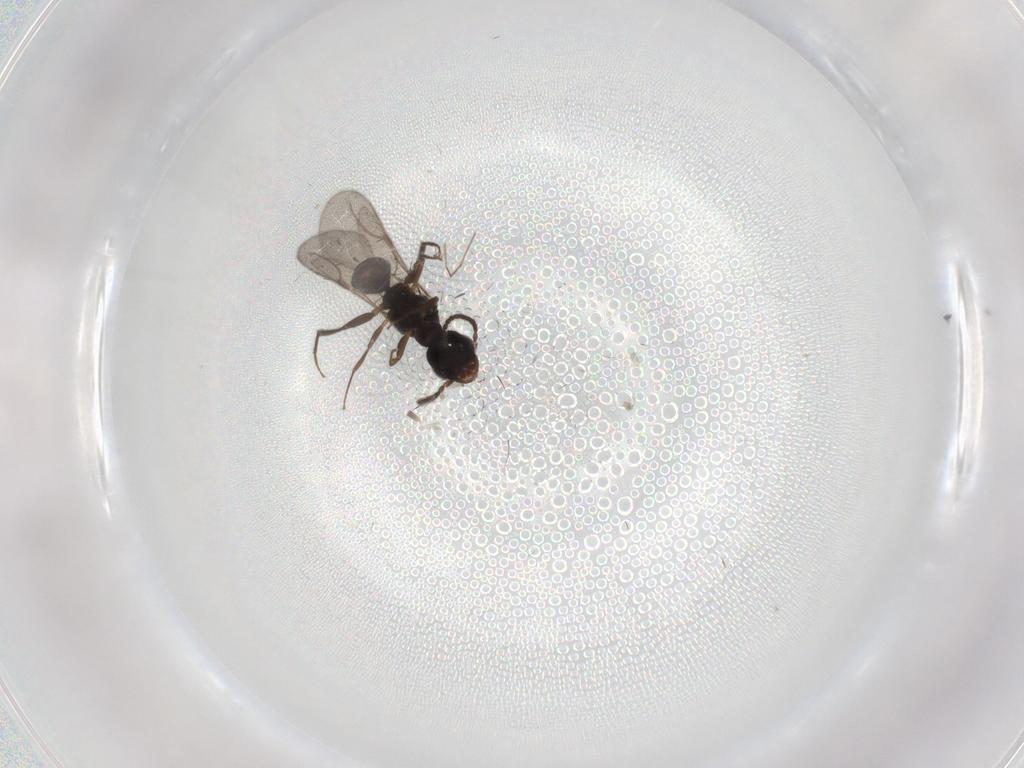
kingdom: Animalia
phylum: Arthropoda
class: Insecta
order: Hymenoptera
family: Bethylidae
